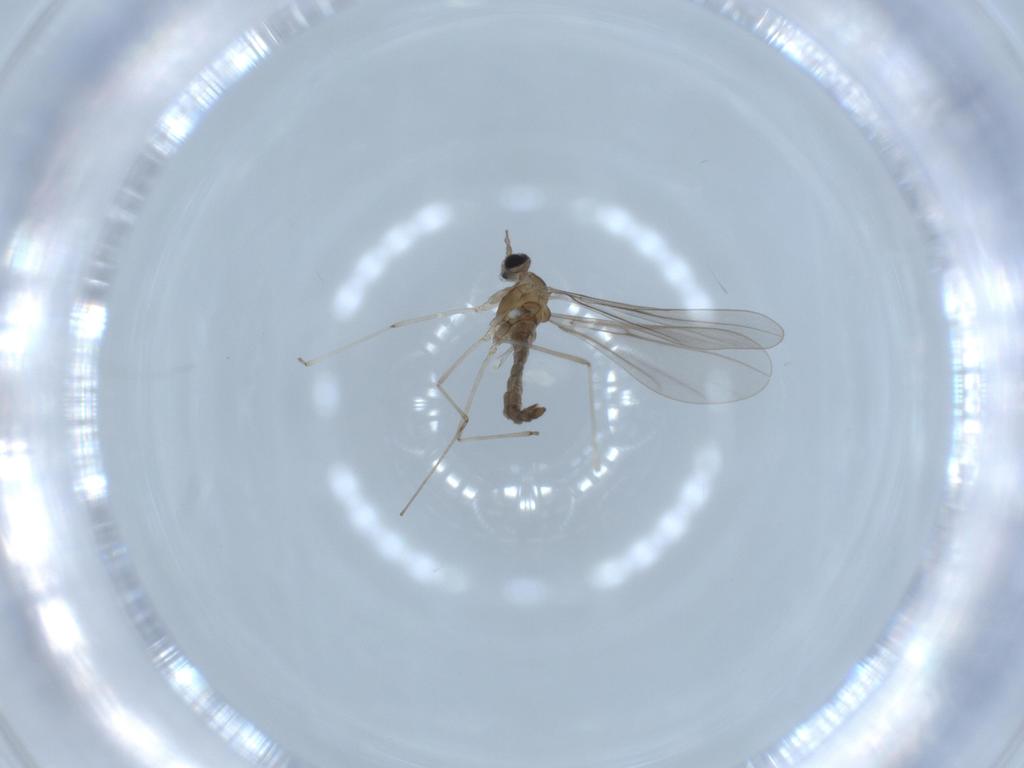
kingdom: Animalia
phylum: Arthropoda
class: Insecta
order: Diptera
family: Cecidomyiidae
